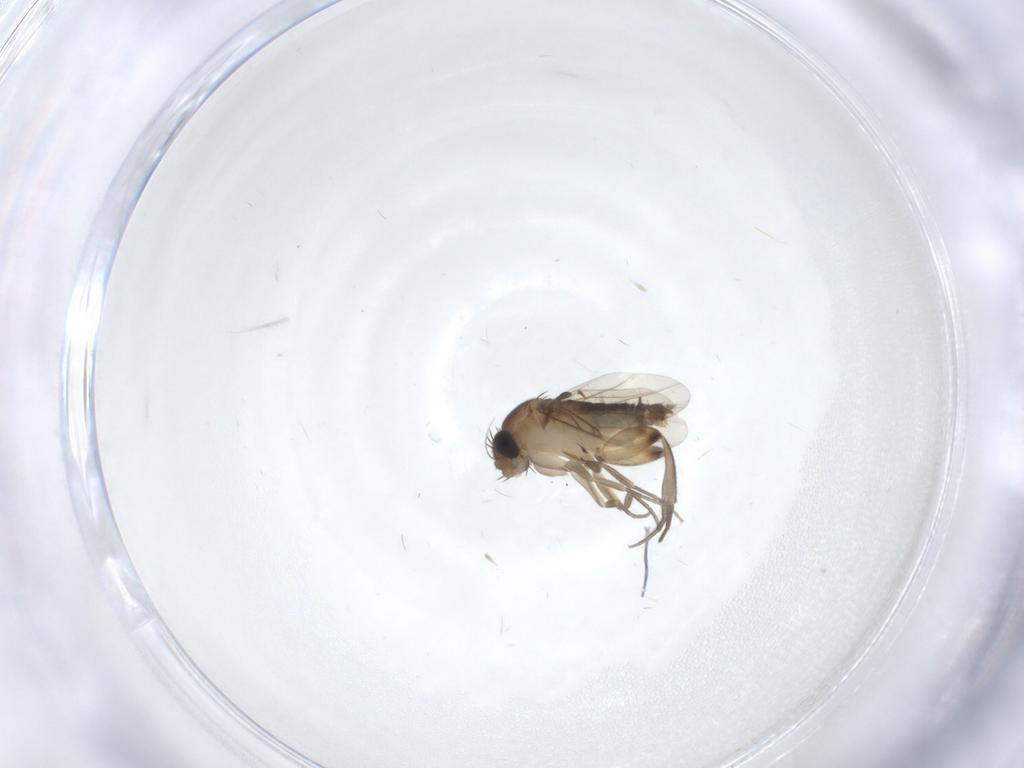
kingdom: Animalia
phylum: Arthropoda
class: Insecta
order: Diptera
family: Phoridae
